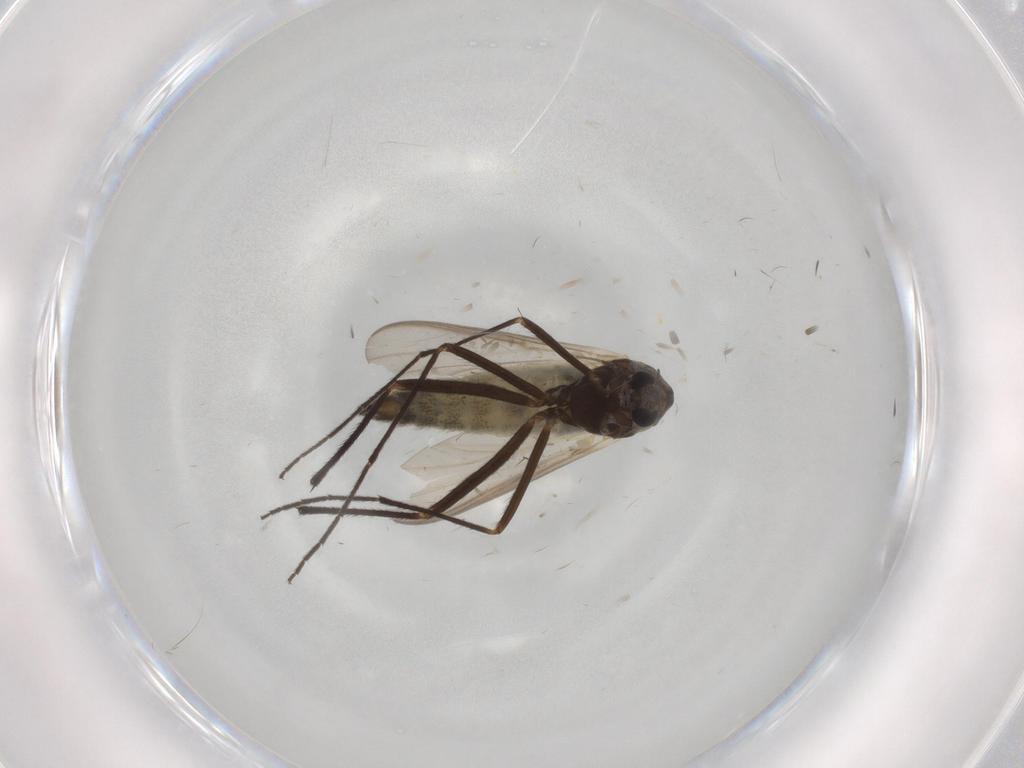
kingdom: Animalia
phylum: Arthropoda
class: Insecta
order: Diptera
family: Chironomidae
